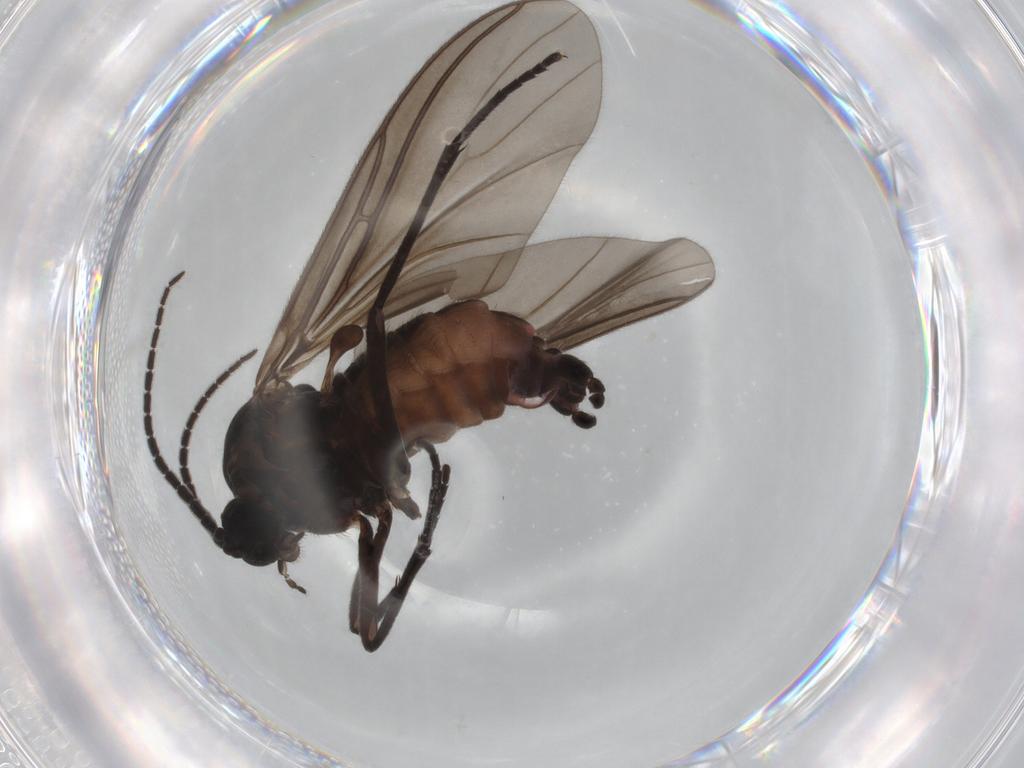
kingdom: Animalia
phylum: Arthropoda
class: Insecta
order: Diptera
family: Sciaridae
